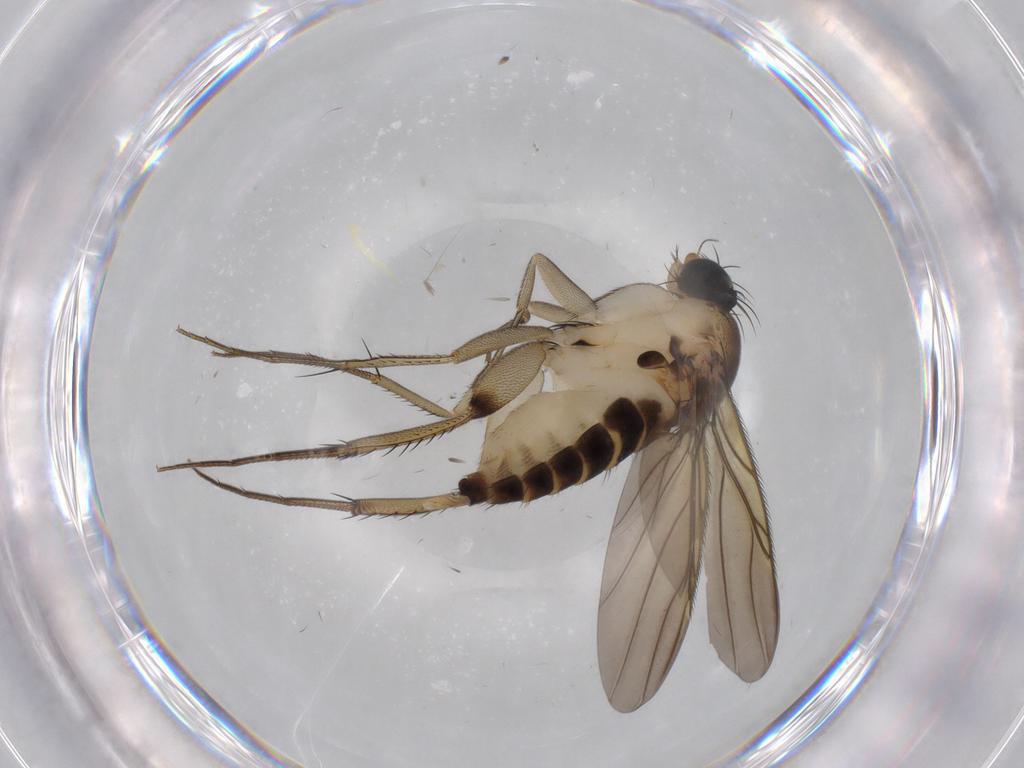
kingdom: Animalia
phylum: Arthropoda
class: Insecta
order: Diptera
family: Phoridae
